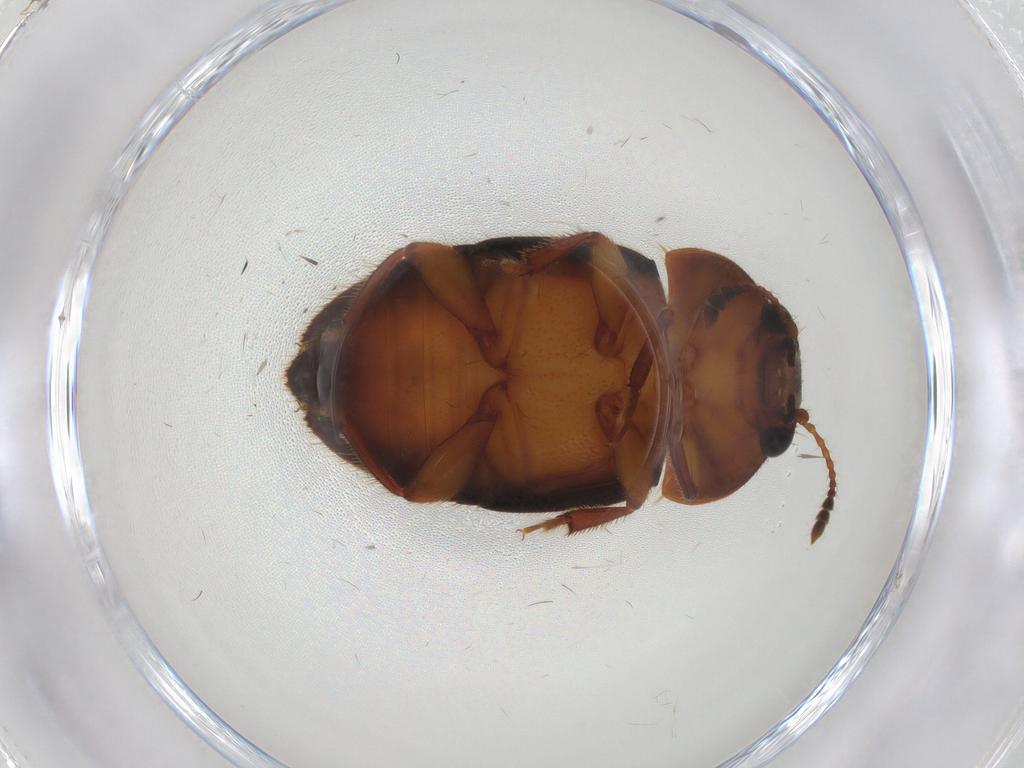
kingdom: Animalia
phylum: Arthropoda
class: Insecta
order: Coleoptera
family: Nitidulidae
